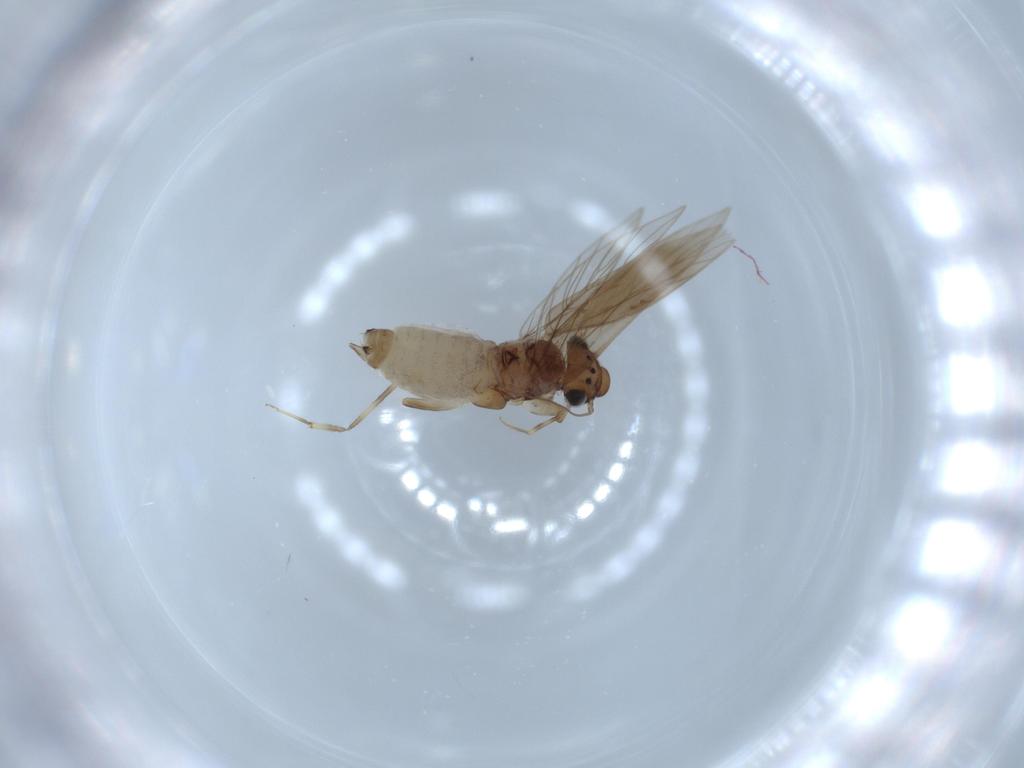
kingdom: Animalia
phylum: Arthropoda
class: Insecta
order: Psocodea
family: Lepidopsocidae
